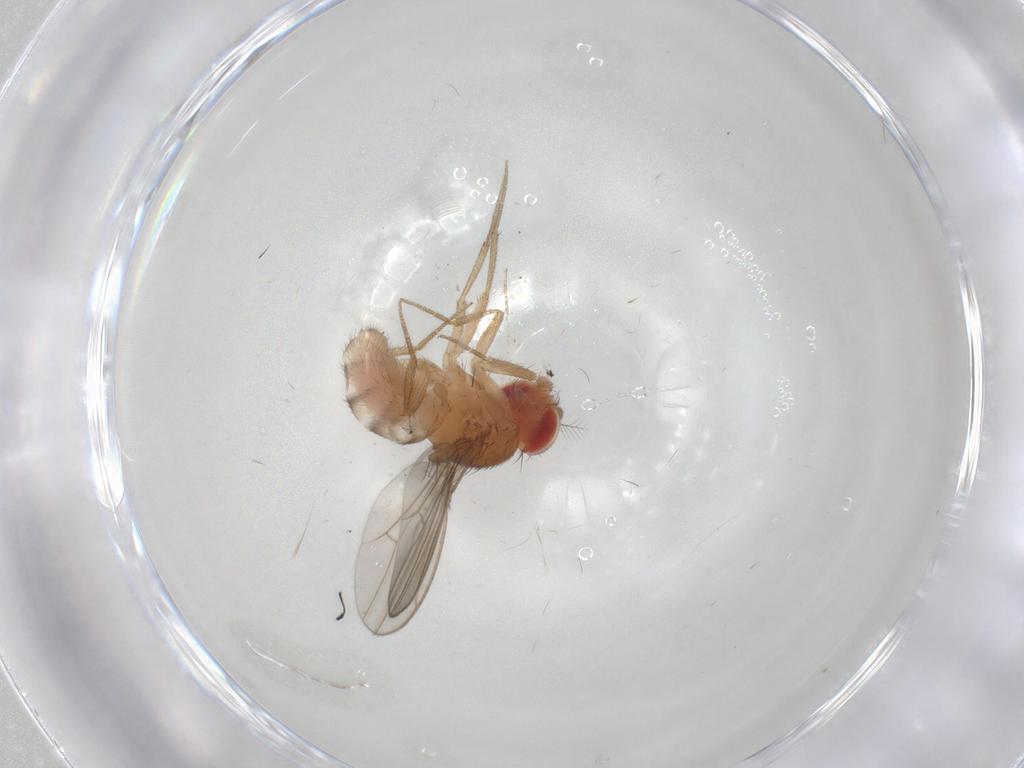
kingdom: Animalia
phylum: Arthropoda
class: Insecta
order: Diptera
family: Drosophilidae
